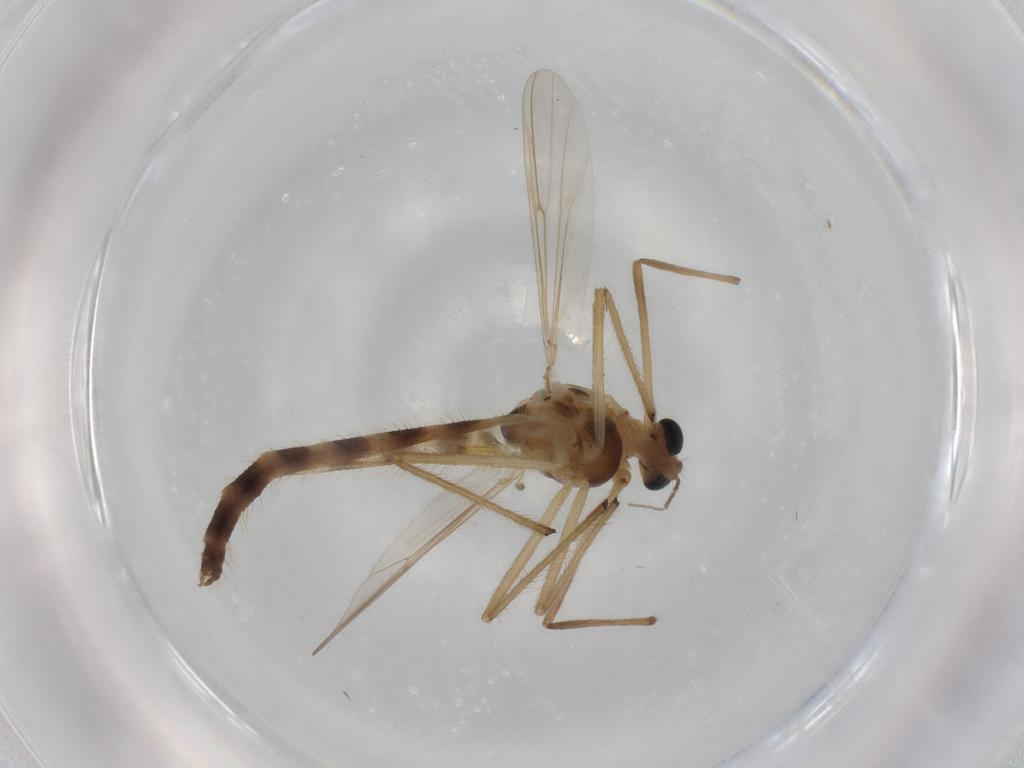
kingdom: Animalia
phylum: Arthropoda
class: Insecta
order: Diptera
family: Chironomidae
